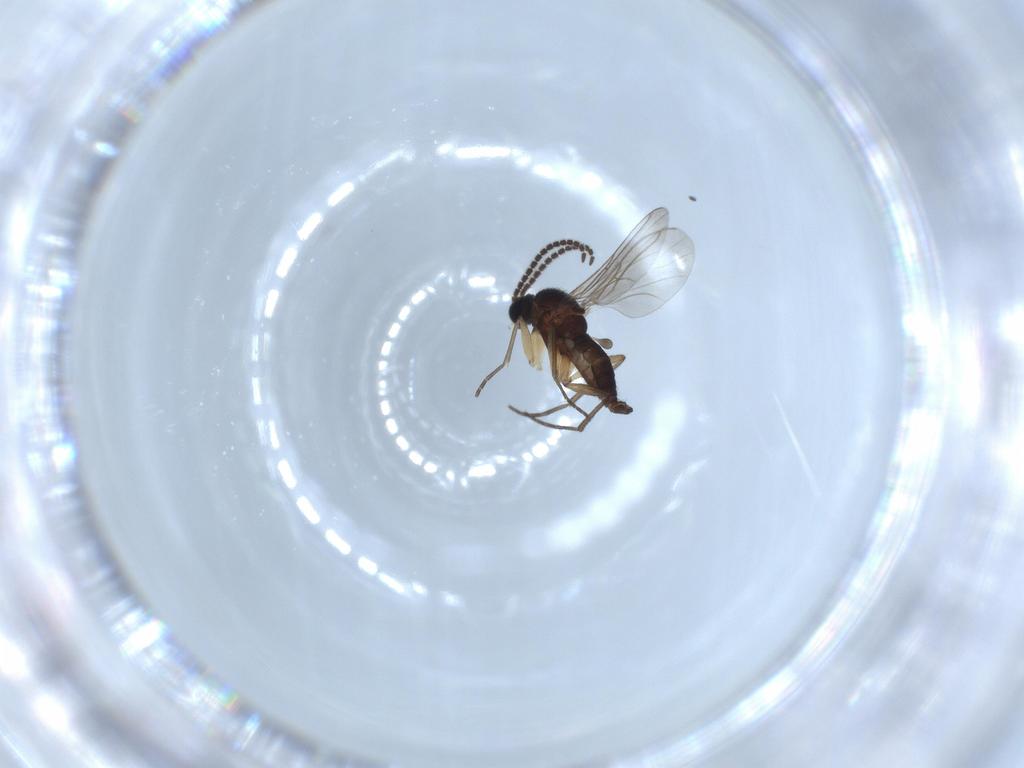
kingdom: Animalia
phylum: Arthropoda
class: Insecta
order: Diptera
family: Sciaridae
